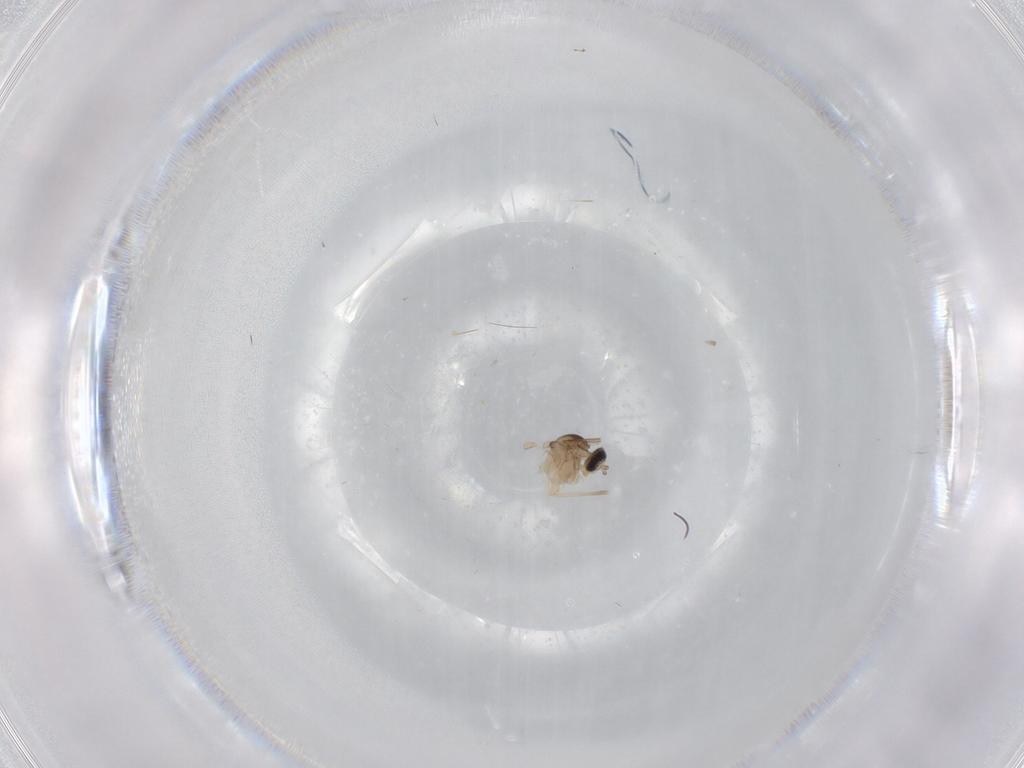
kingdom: Animalia
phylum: Arthropoda
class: Insecta
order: Diptera
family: Cecidomyiidae
